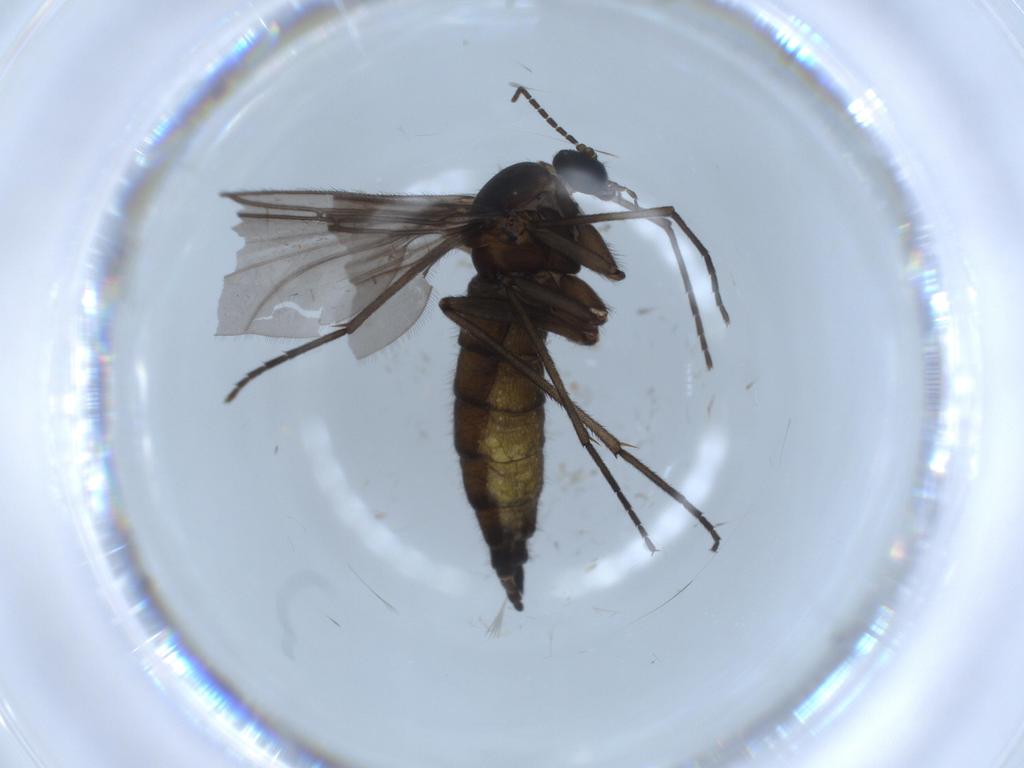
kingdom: Animalia
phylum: Arthropoda
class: Insecta
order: Diptera
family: Sciaridae
